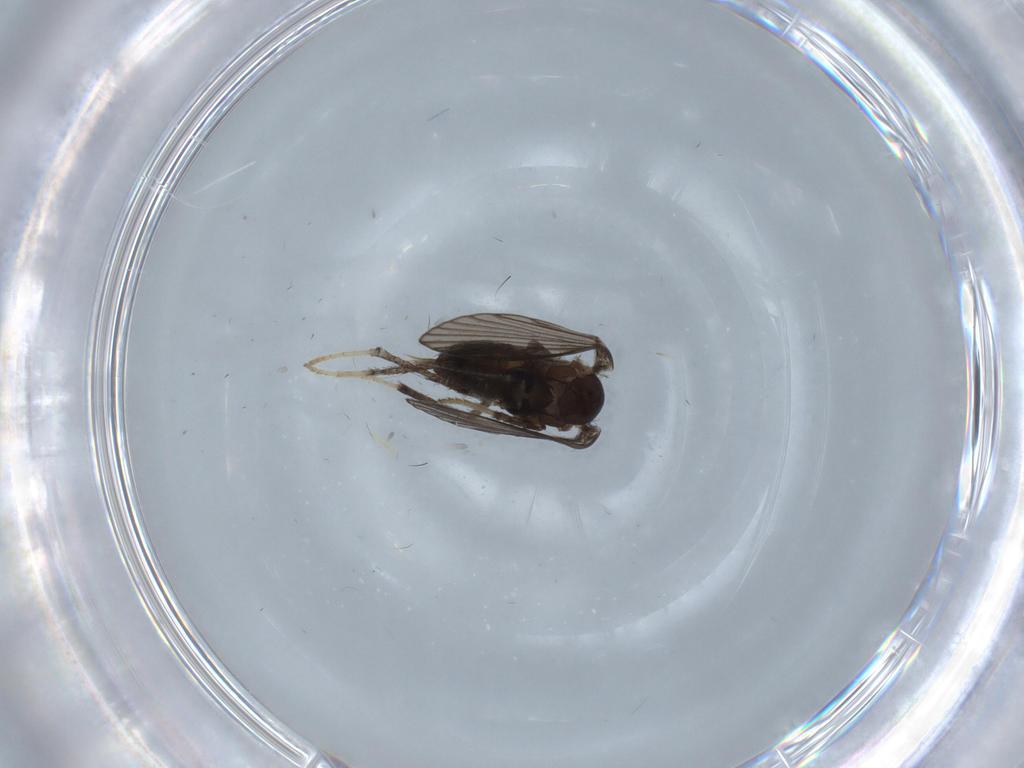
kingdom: Animalia
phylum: Arthropoda
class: Insecta
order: Diptera
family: Psychodidae
